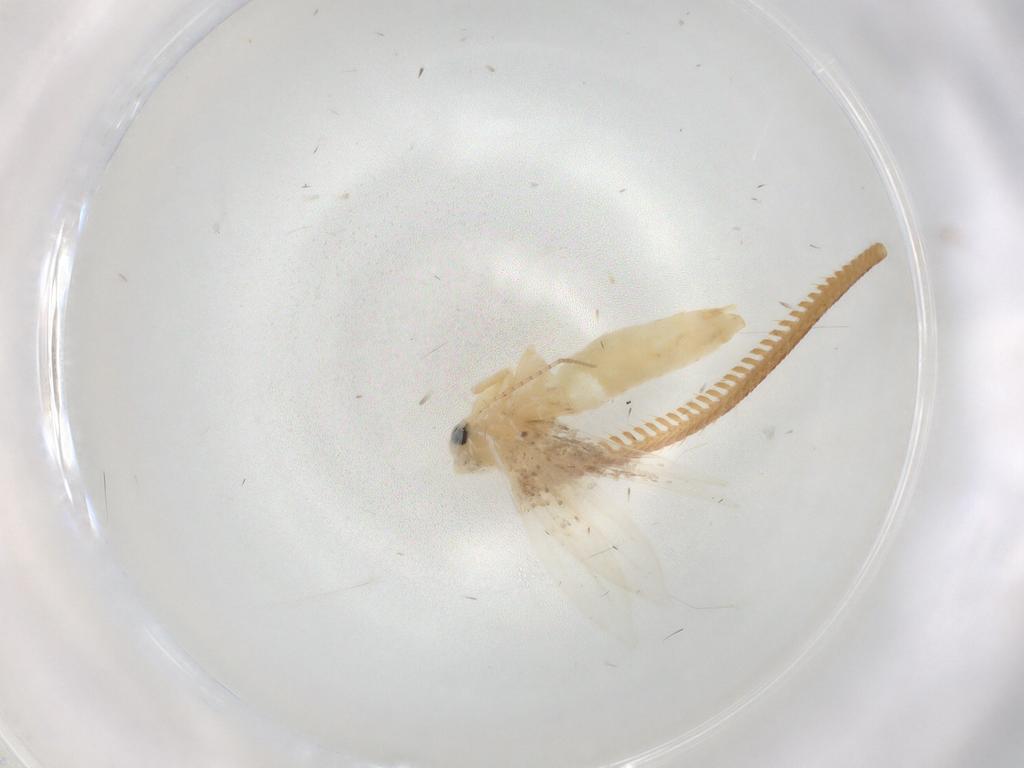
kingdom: Animalia
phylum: Arthropoda
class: Insecta
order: Lepidoptera
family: Erebidae
